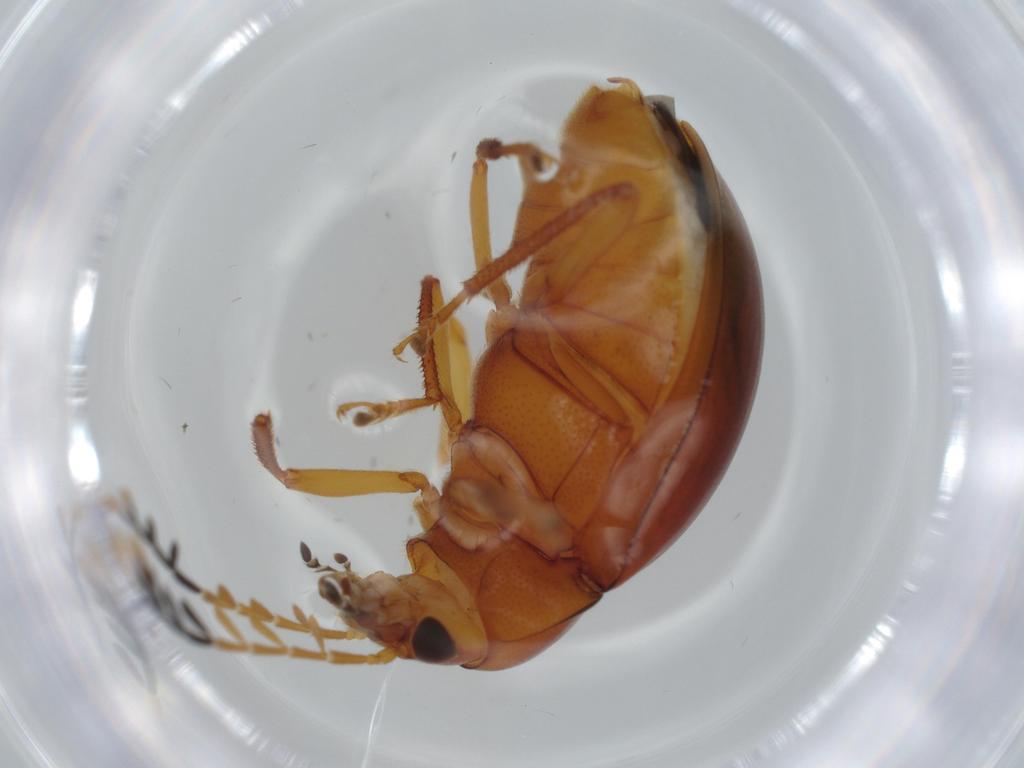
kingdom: Animalia
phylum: Arthropoda
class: Insecta
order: Coleoptera
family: Ptilodactylidae
